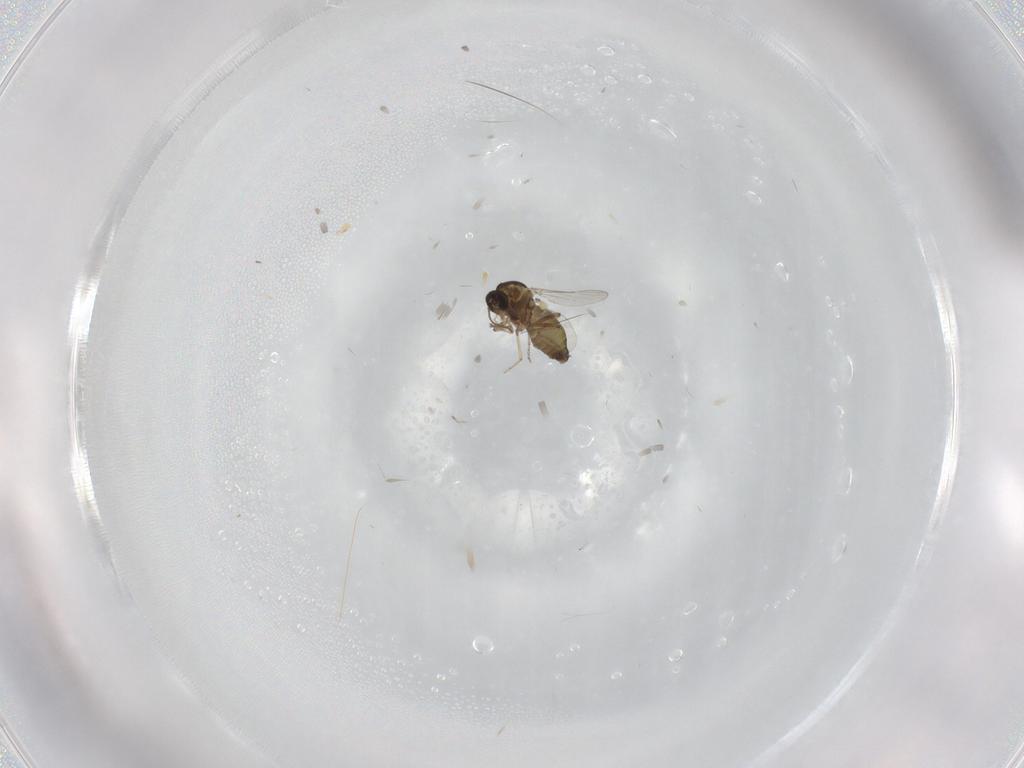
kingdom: Animalia
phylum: Arthropoda
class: Insecta
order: Diptera
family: Ceratopogonidae
